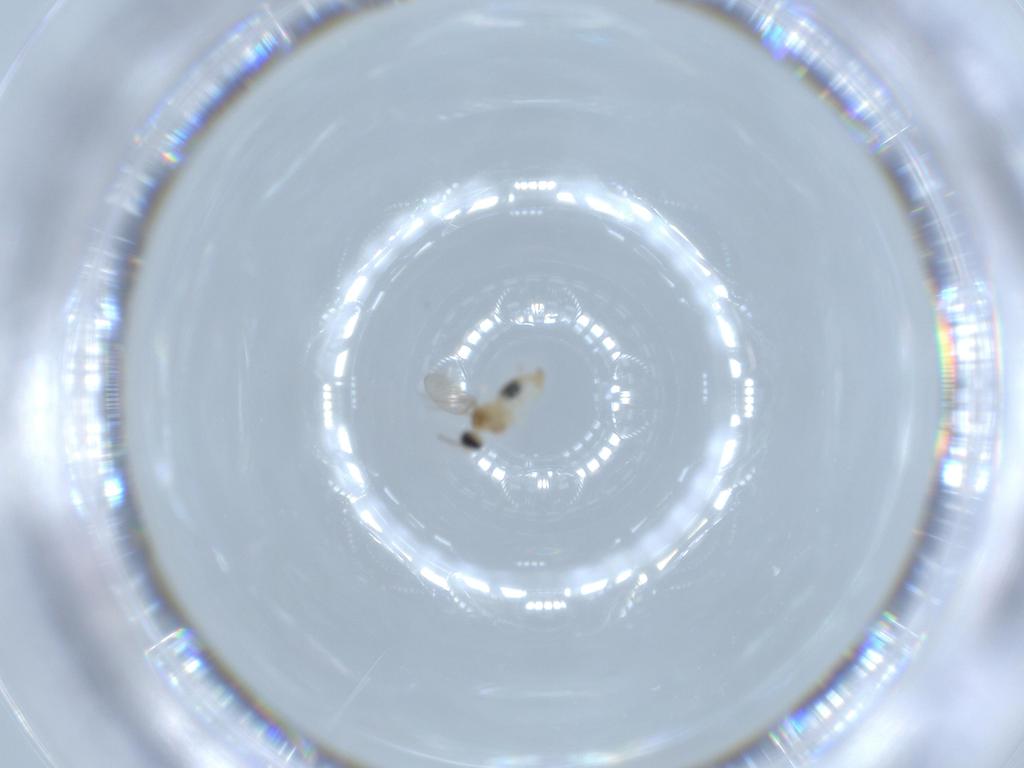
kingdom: Animalia
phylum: Arthropoda
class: Insecta
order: Diptera
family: Cecidomyiidae
